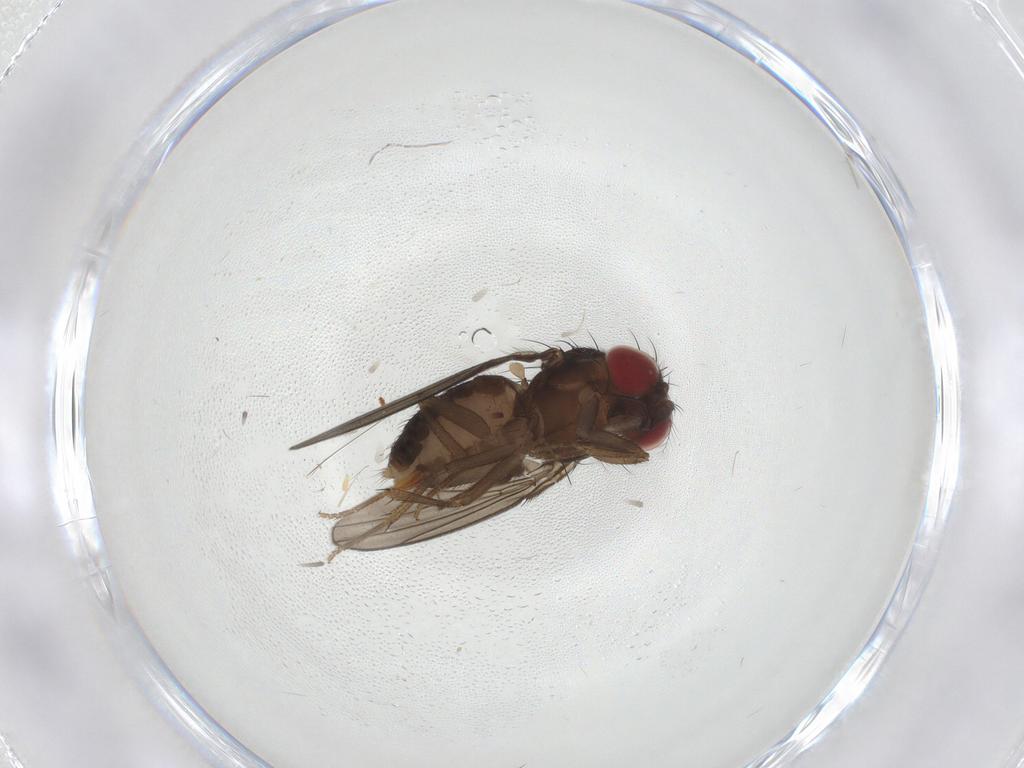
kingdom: Animalia
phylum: Arthropoda
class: Insecta
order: Diptera
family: Drosophilidae
